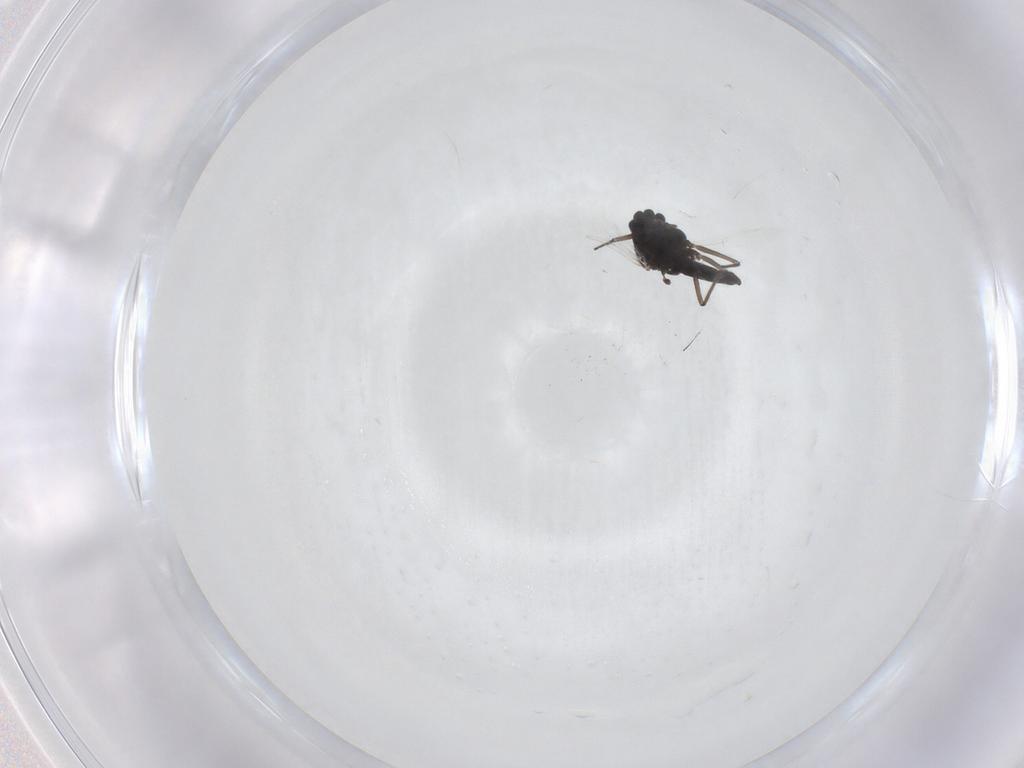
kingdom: Animalia
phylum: Arthropoda
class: Insecta
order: Diptera
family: Chironomidae
